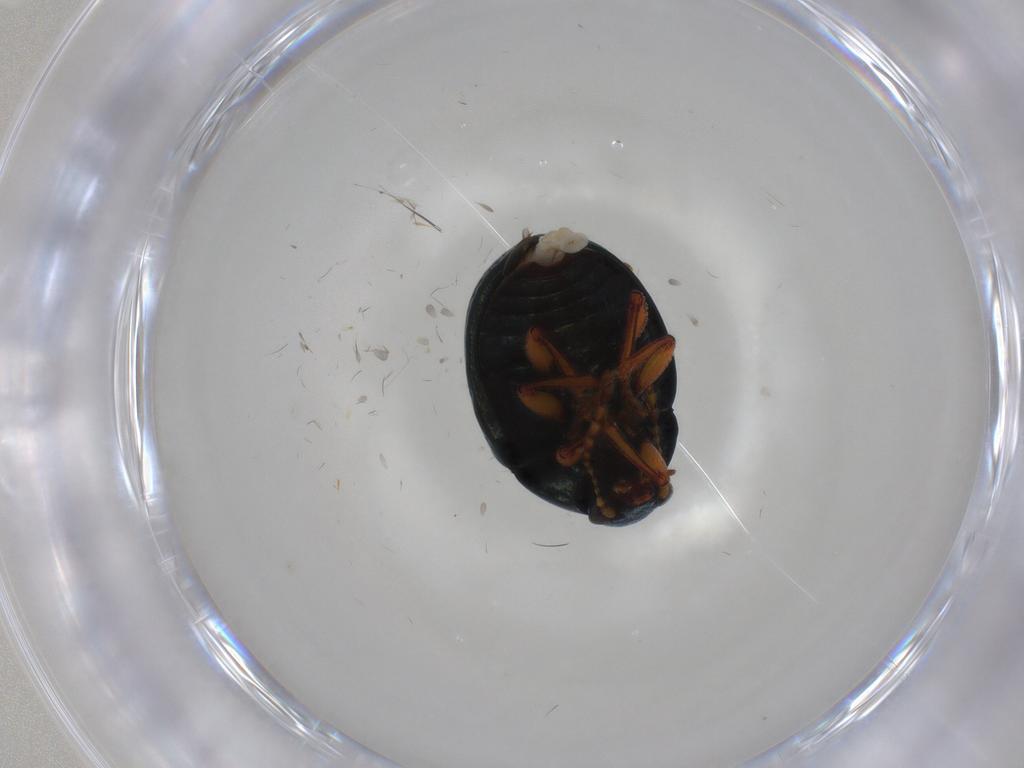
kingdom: Animalia
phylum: Arthropoda
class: Insecta
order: Coleoptera
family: Chrysomelidae
